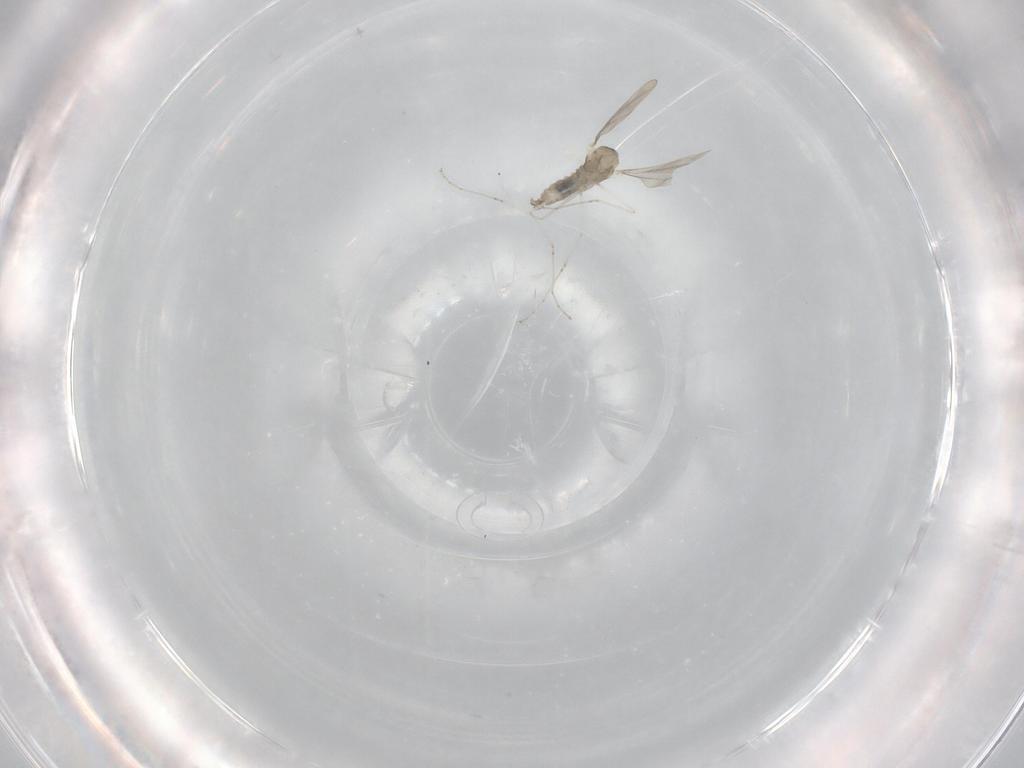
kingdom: Animalia
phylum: Arthropoda
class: Insecta
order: Diptera
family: Cecidomyiidae
